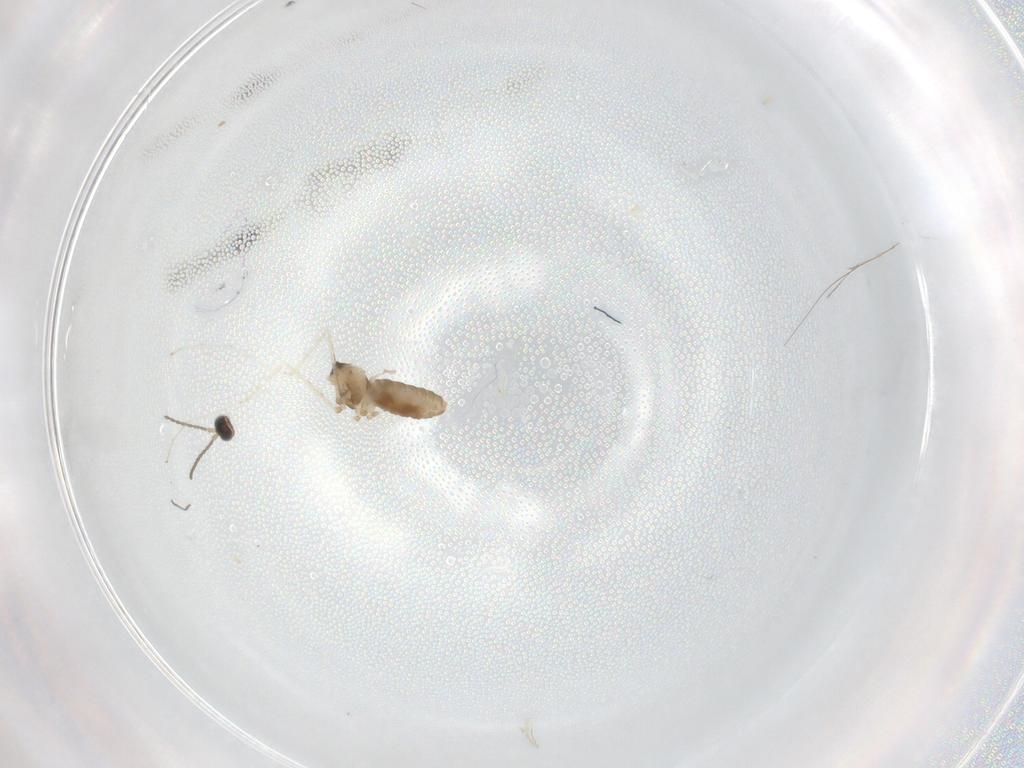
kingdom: Animalia
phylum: Arthropoda
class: Insecta
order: Diptera
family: Cecidomyiidae
